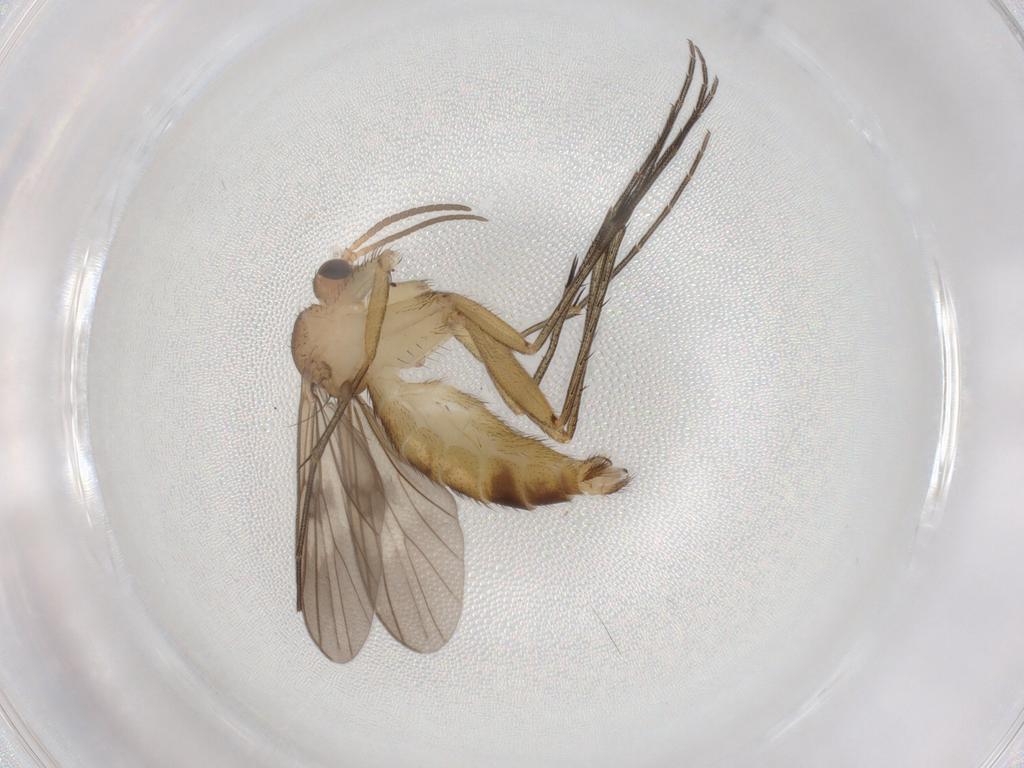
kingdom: Animalia
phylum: Arthropoda
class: Insecta
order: Diptera
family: Mycetophilidae
